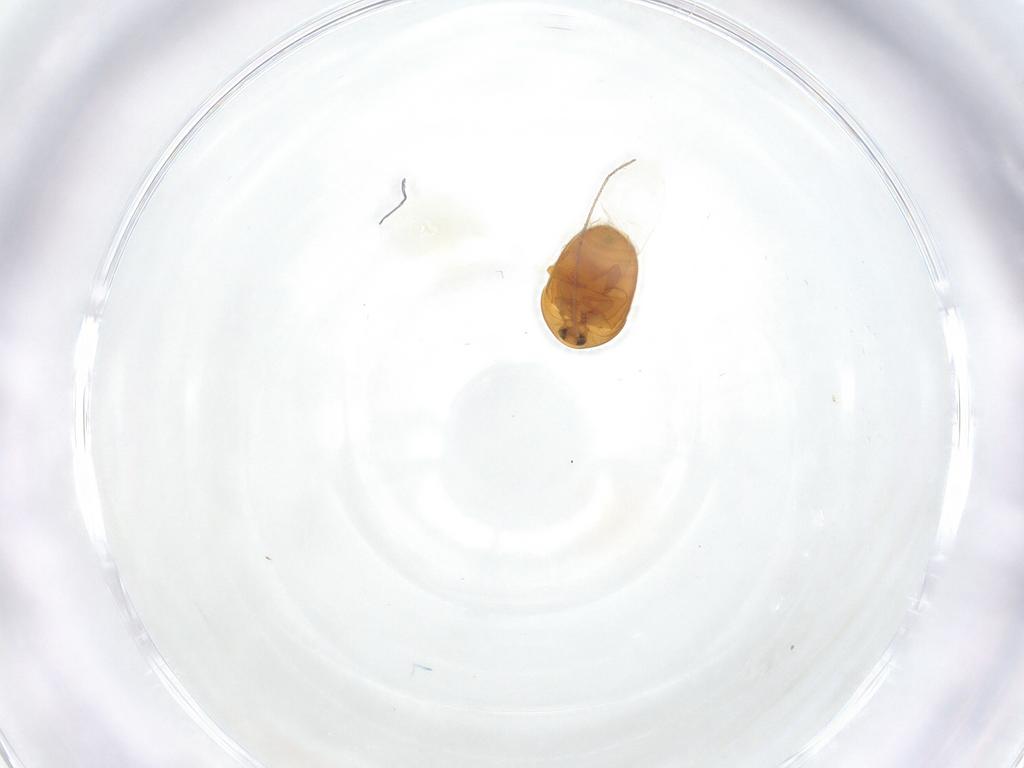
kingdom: Animalia
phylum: Arthropoda
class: Insecta
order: Coleoptera
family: Corylophidae
